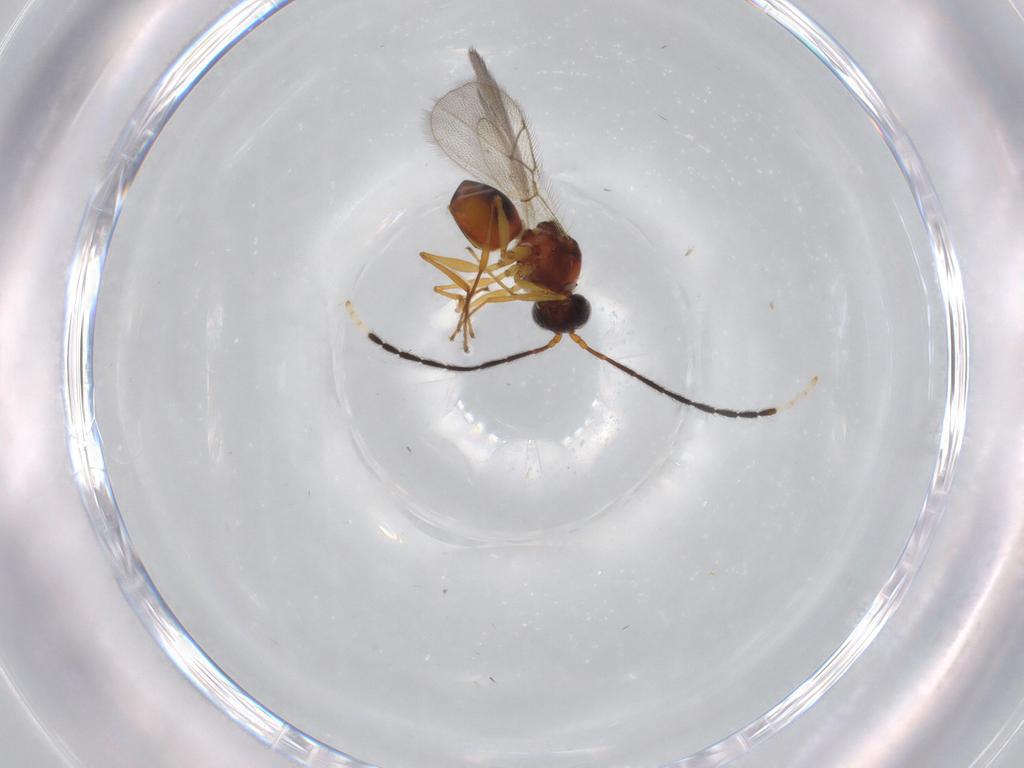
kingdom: Animalia
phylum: Arthropoda
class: Insecta
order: Hymenoptera
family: Figitidae
